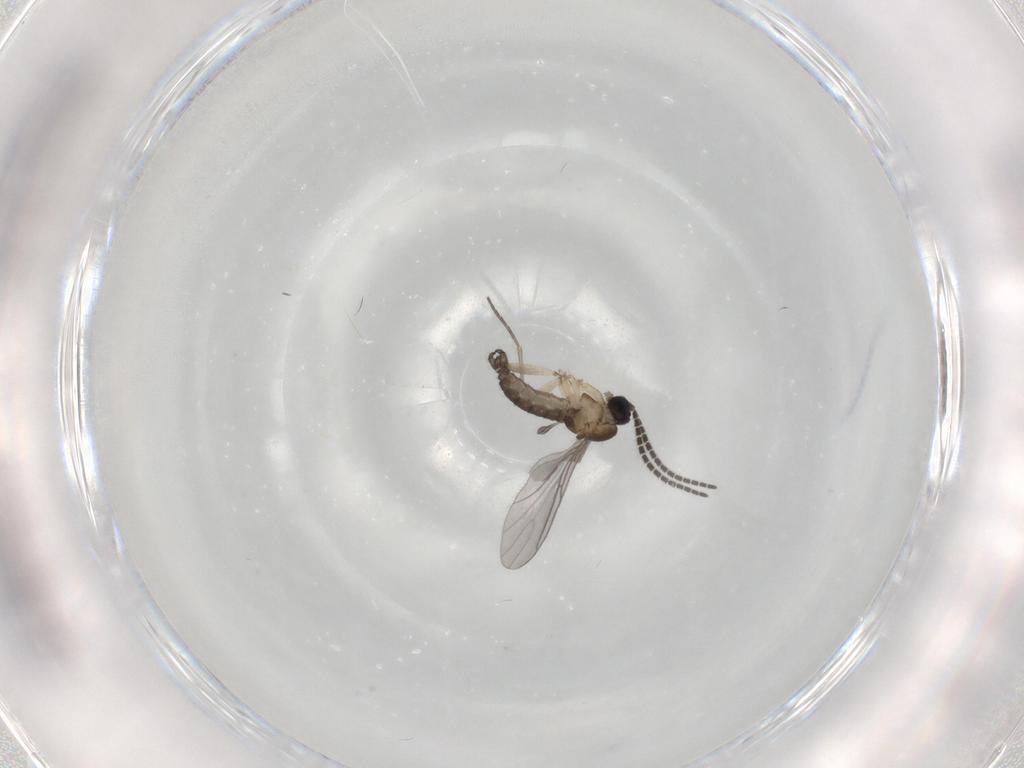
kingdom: Animalia
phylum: Arthropoda
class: Insecta
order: Diptera
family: Sciaridae
